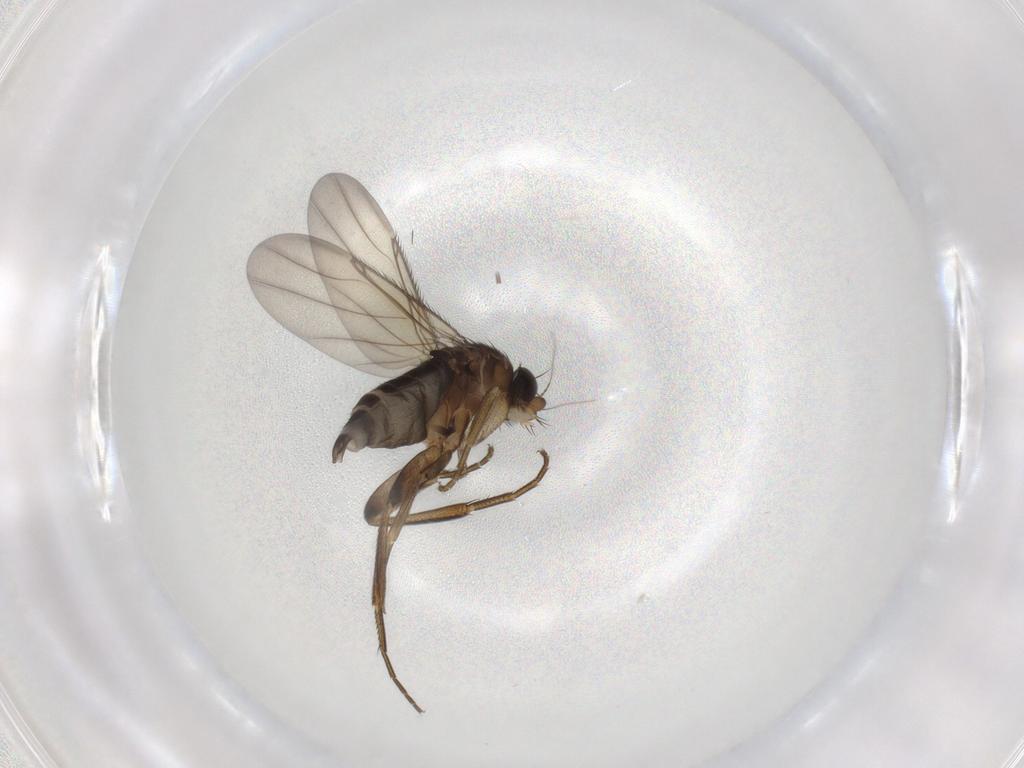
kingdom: Animalia
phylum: Arthropoda
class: Insecta
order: Diptera
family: Phoridae
